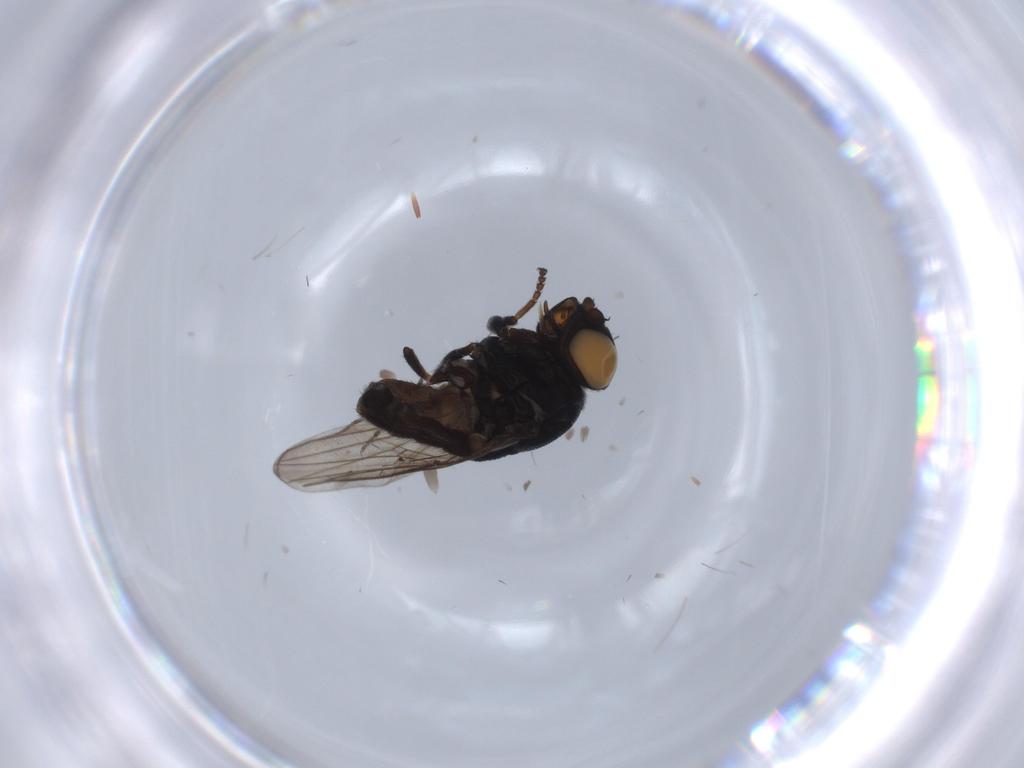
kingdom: Animalia
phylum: Arthropoda
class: Insecta
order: Diptera
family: Chloropidae
